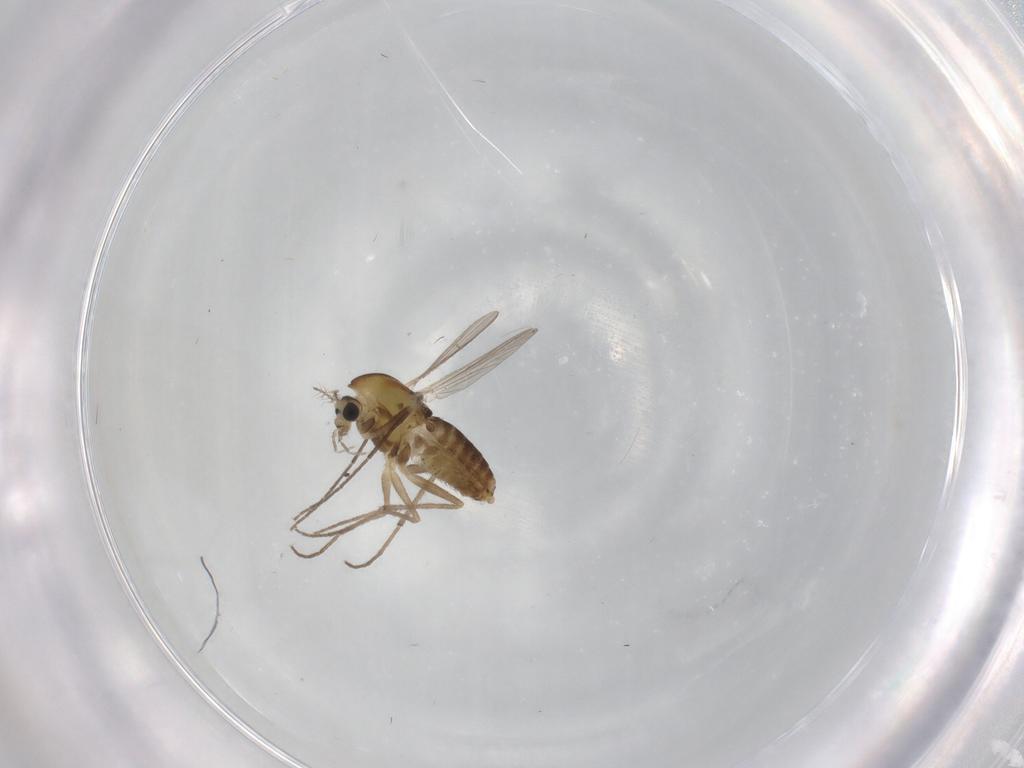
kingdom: Animalia
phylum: Arthropoda
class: Insecta
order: Diptera
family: Chironomidae
